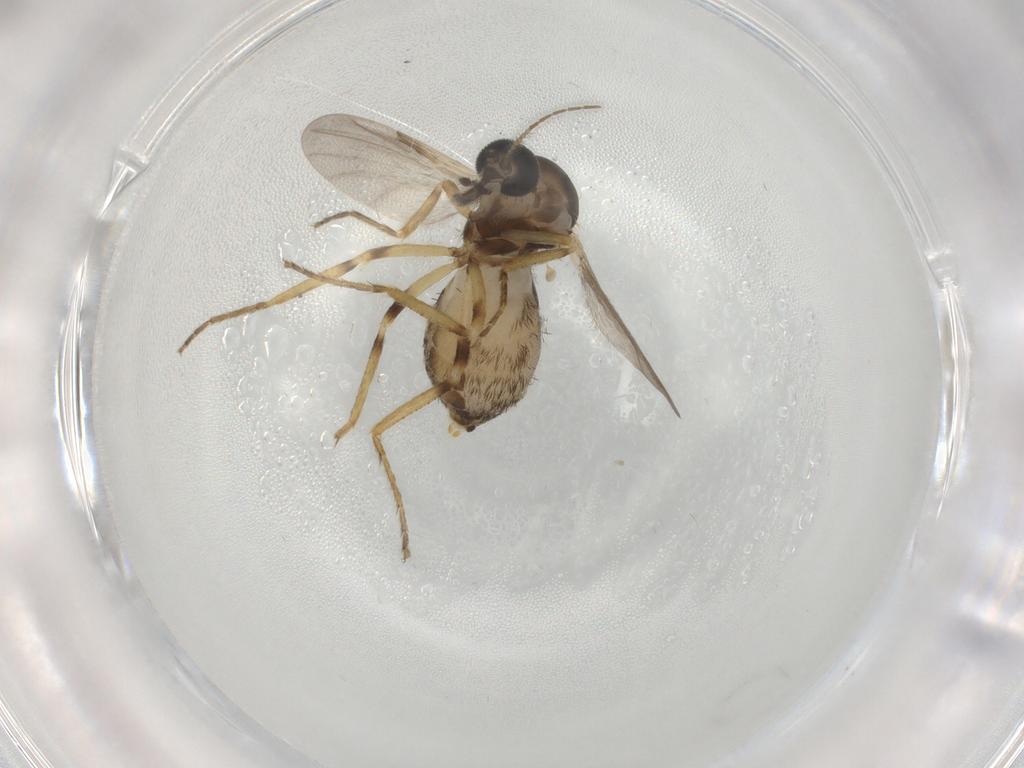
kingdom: Animalia
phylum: Arthropoda
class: Insecta
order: Diptera
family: Ceratopogonidae
